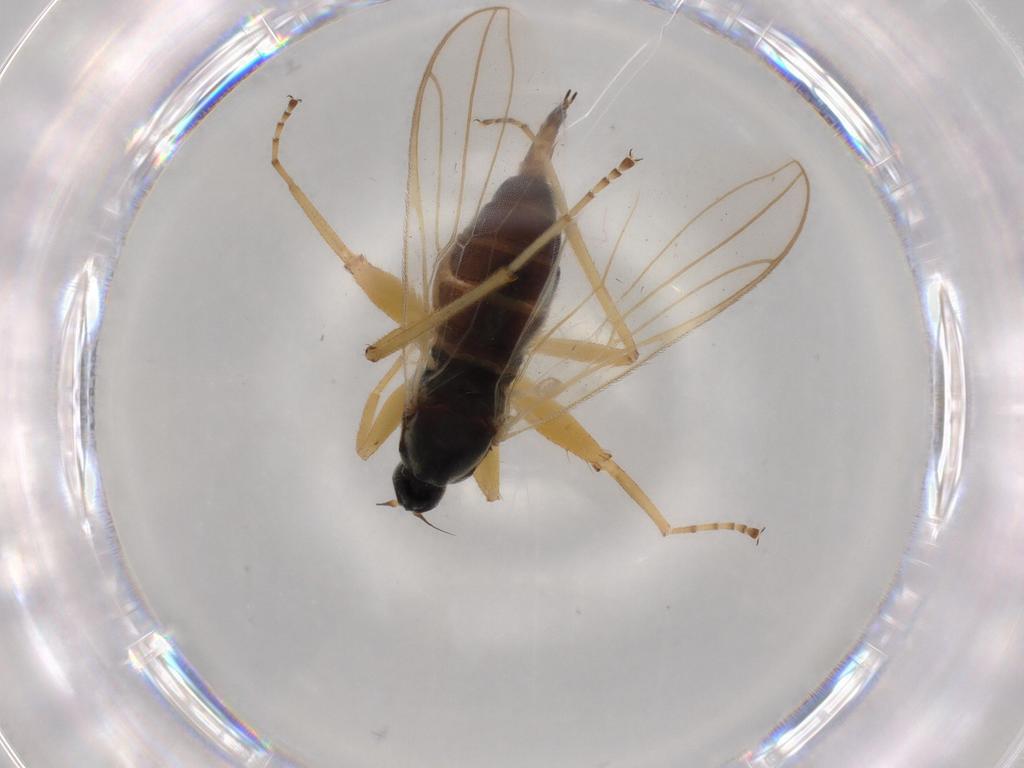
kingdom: Animalia
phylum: Arthropoda
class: Insecta
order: Diptera
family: Hybotidae
